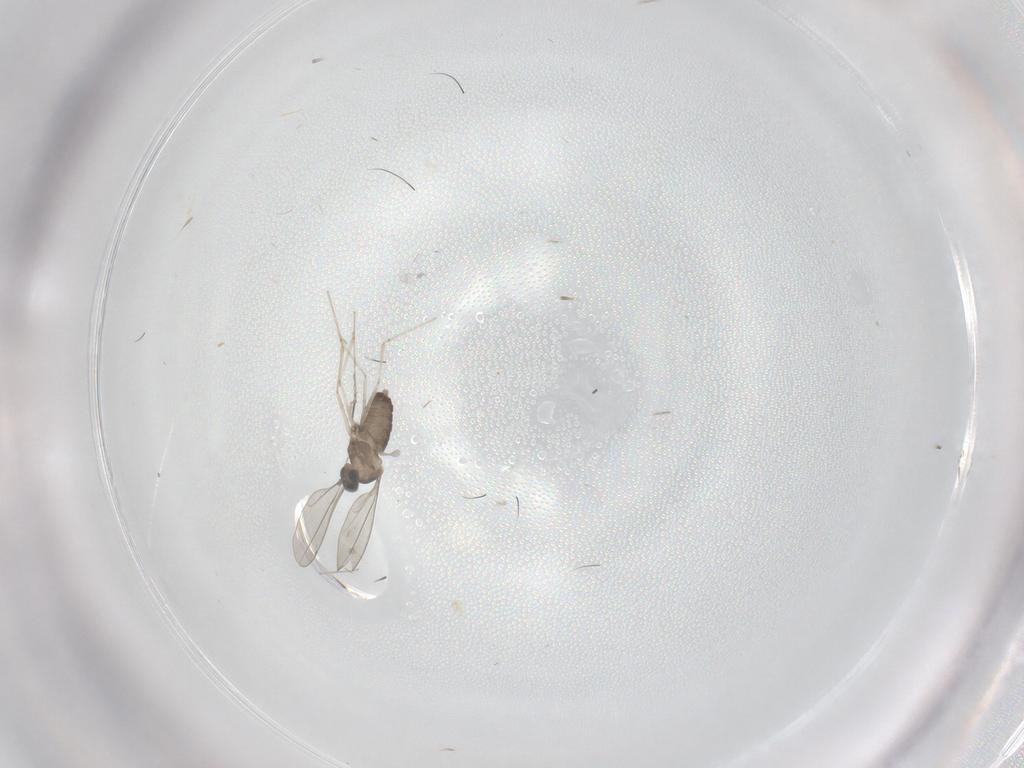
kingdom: Animalia
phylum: Arthropoda
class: Insecta
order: Diptera
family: Cecidomyiidae
